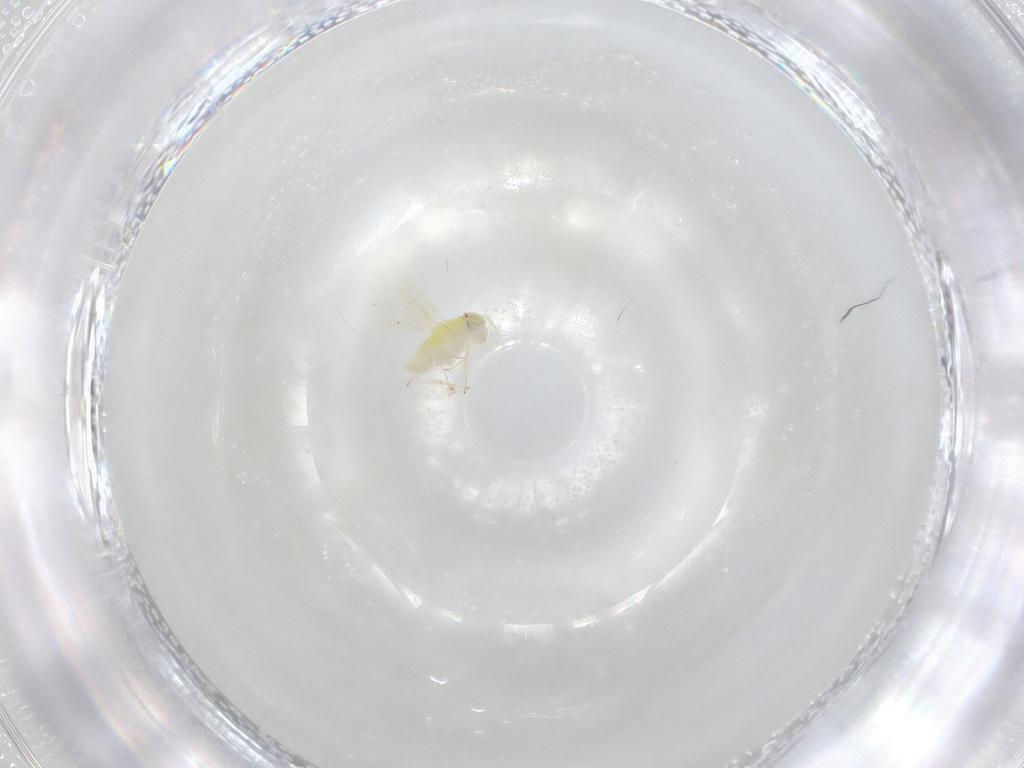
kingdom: Animalia
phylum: Arthropoda
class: Insecta
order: Hymenoptera
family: Aphelinidae
